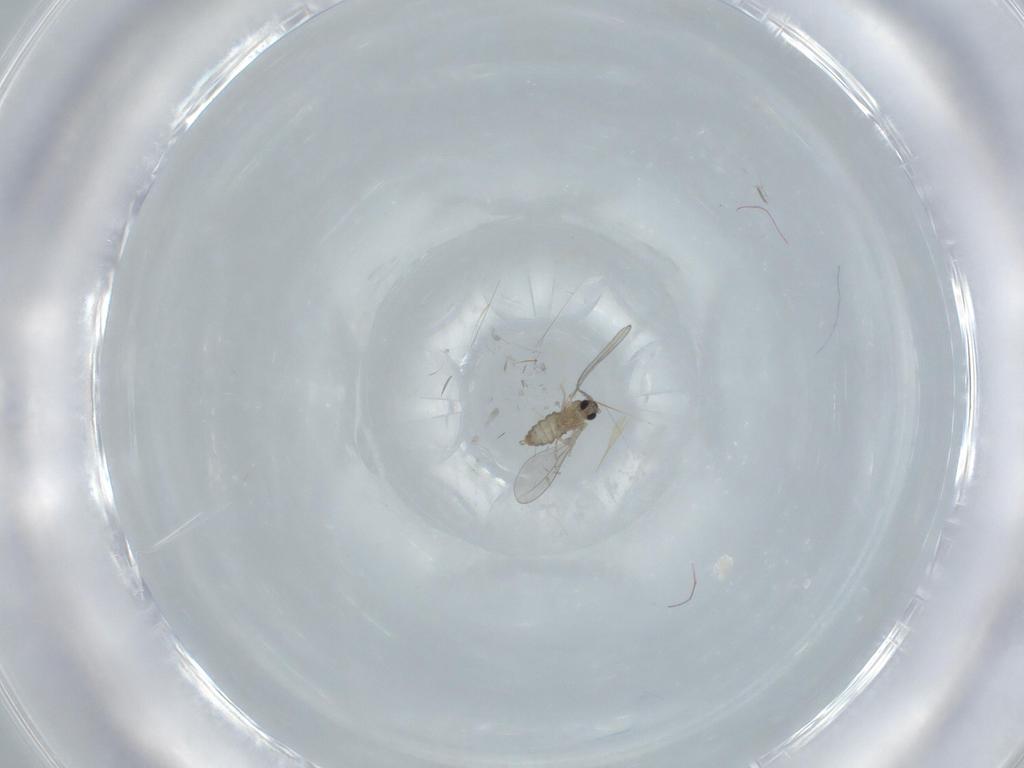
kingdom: Animalia
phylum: Arthropoda
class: Insecta
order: Diptera
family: Cecidomyiidae
